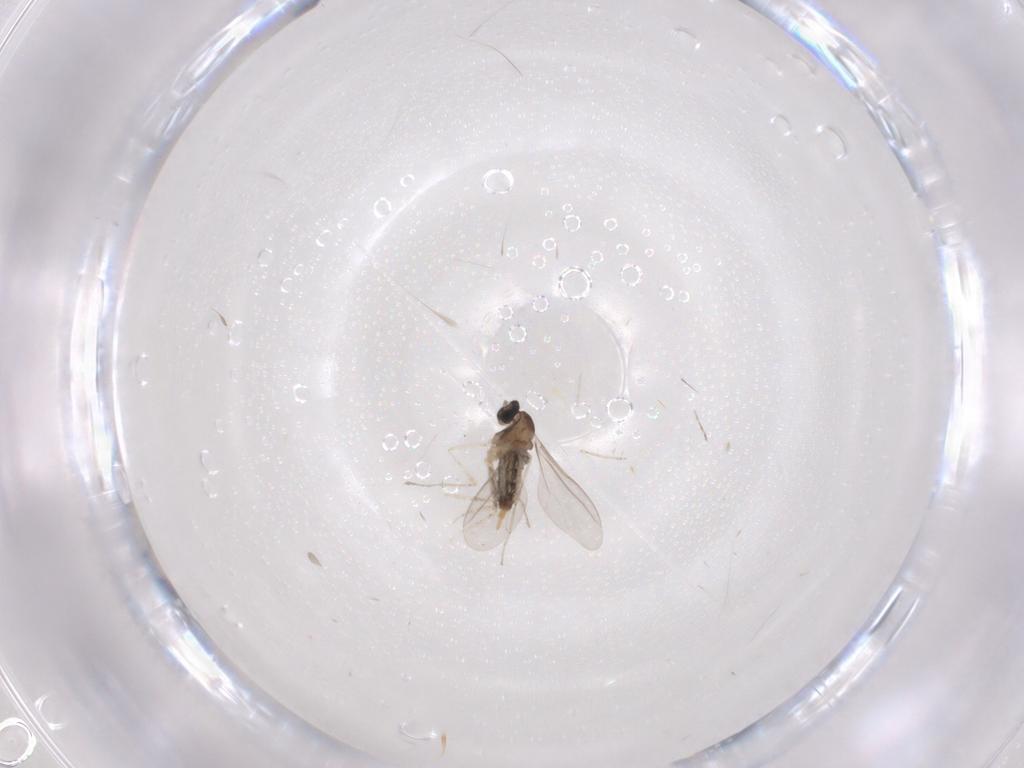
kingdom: Animalia
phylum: Arthropoda
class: Insecta
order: Diptera
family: Cecidomyiidae
